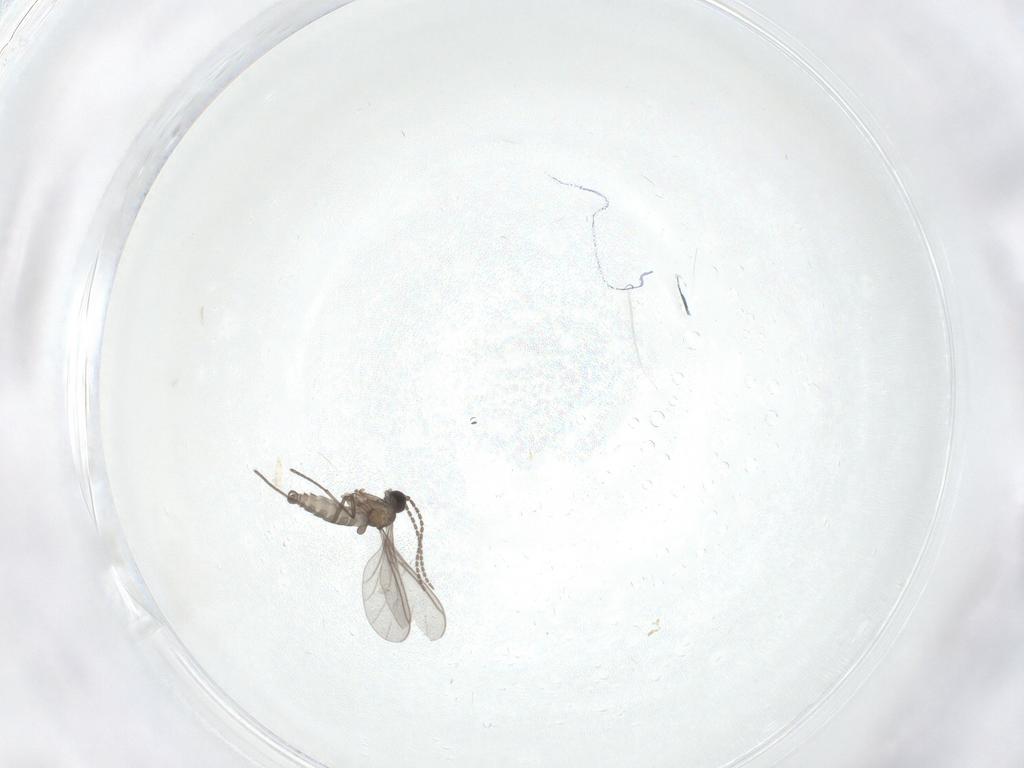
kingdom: Animalia
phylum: Arthropoda
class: Insecta
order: Diptera
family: Sciaridae
